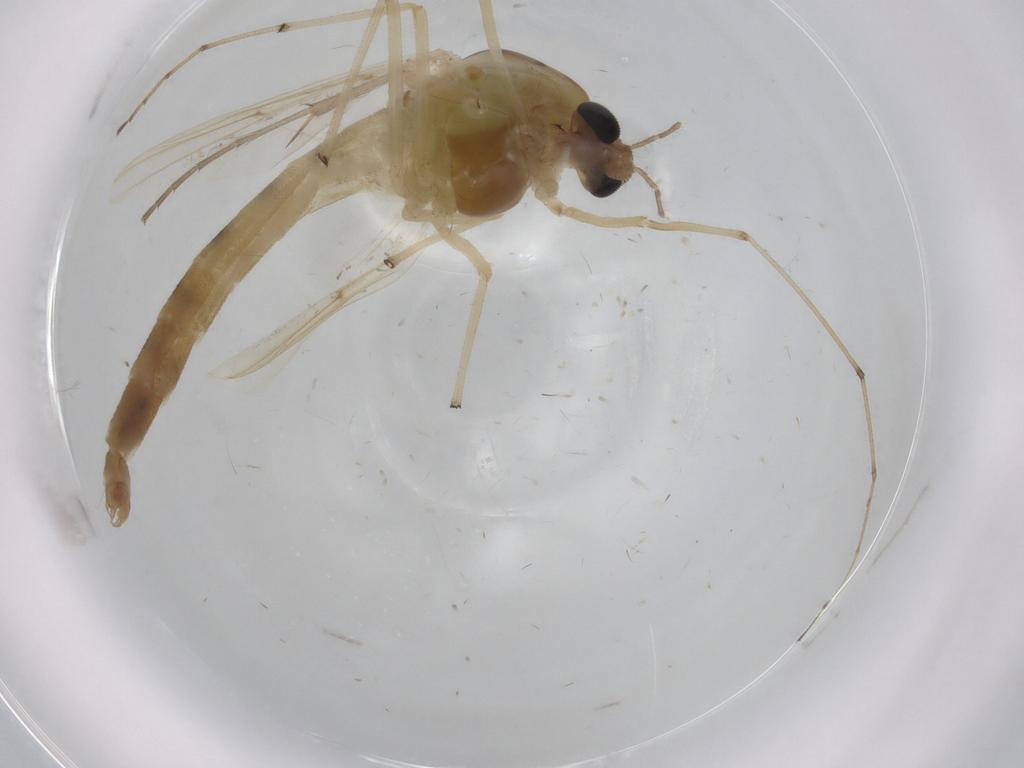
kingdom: Animalia
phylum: Arthropoda
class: Insecta
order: Diptera
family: Chironomidae
